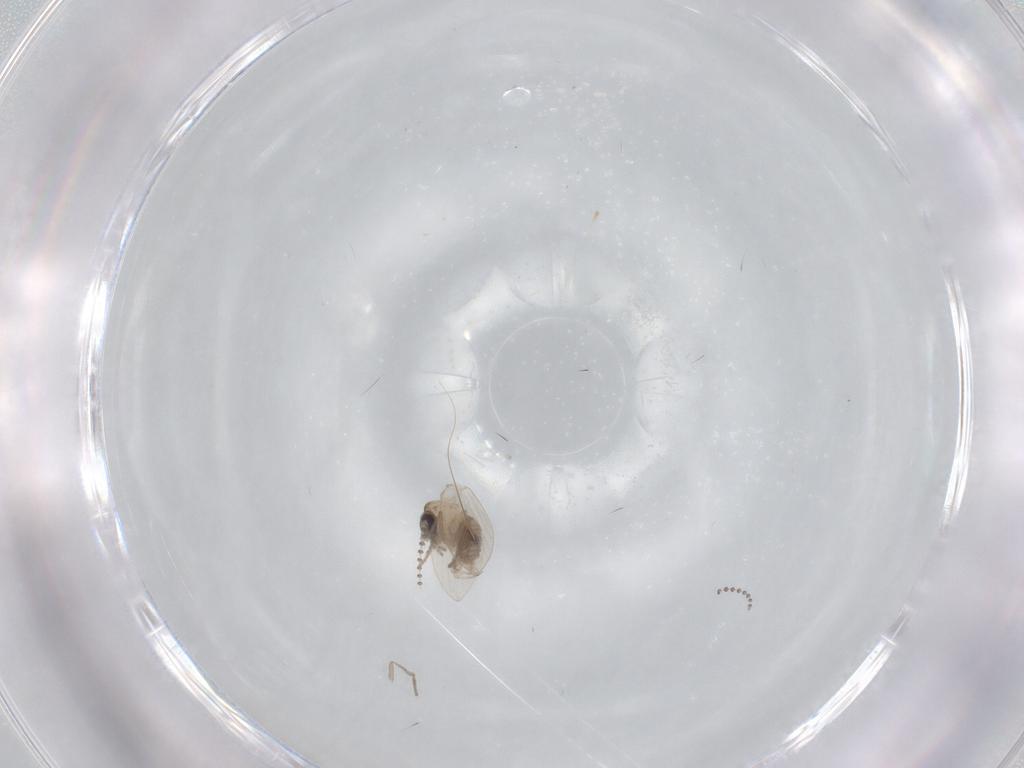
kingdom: Animalia
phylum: Arthropoda
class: Insecta
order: Diptera
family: Psychodidae
